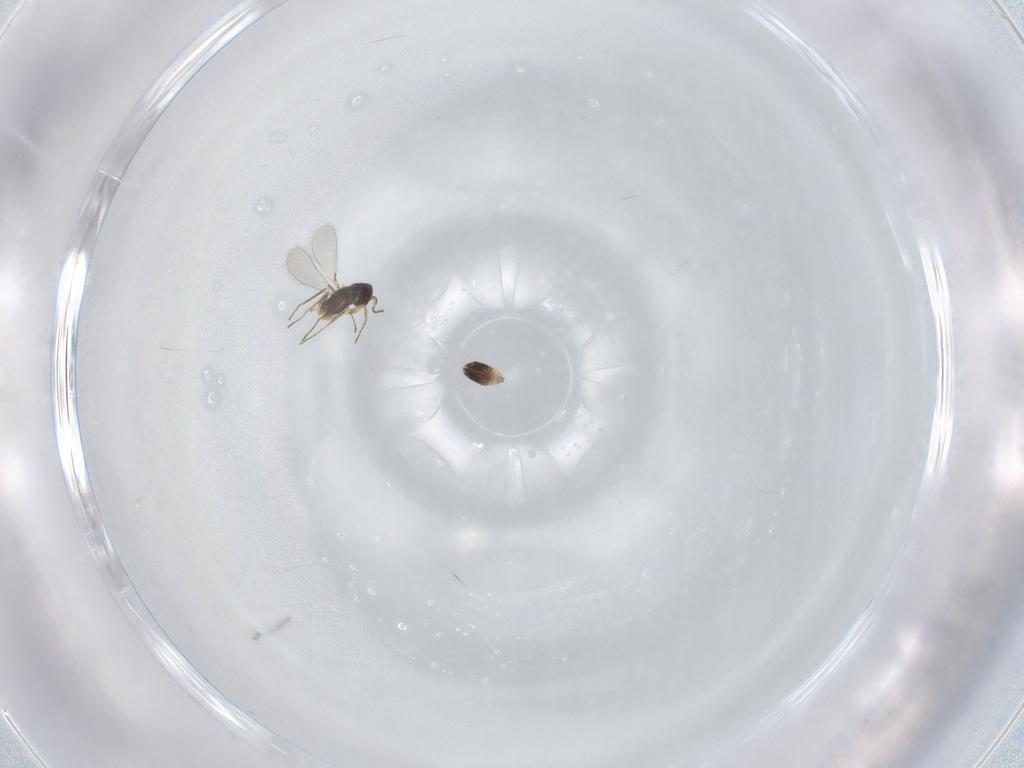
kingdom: Animalia
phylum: Arthropoda
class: Insecta
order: Hymenoptera
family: Mymaridae
